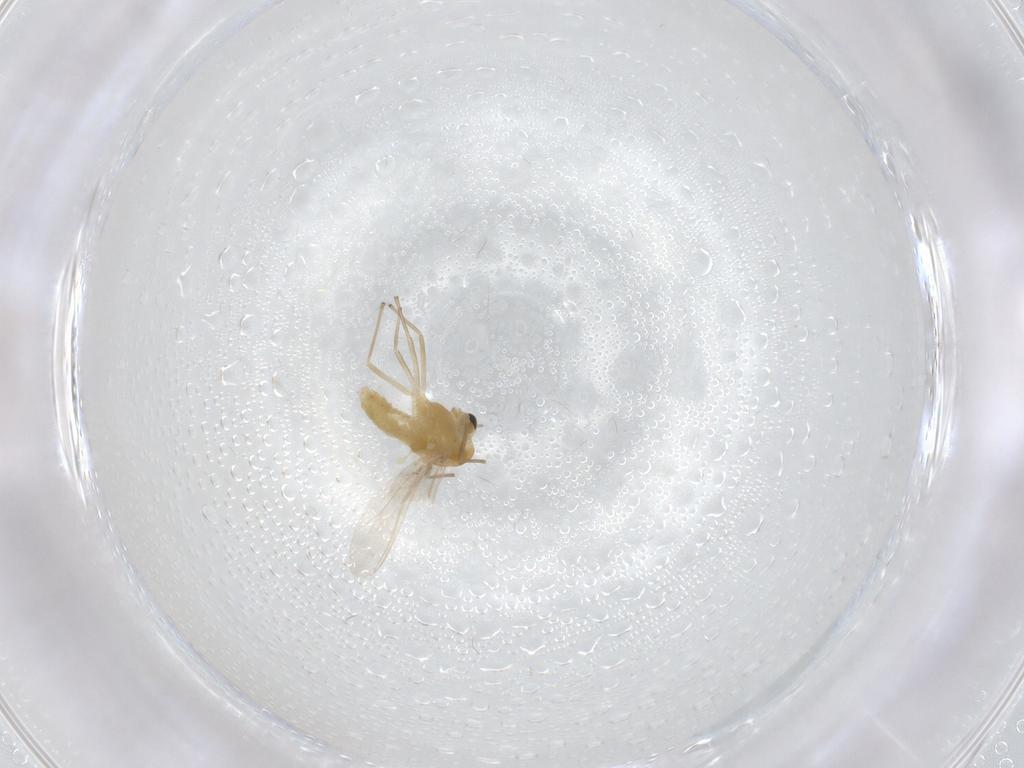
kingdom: Animalia
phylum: Arthropoda
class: Insecta
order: Diptera
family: Chironomidae
